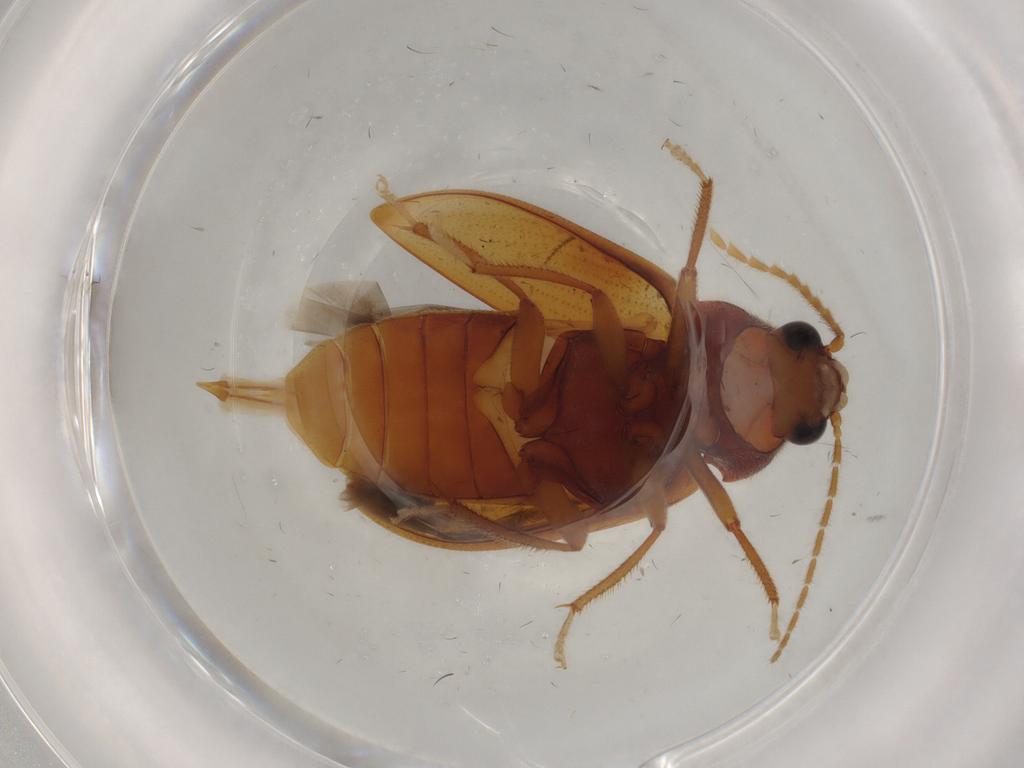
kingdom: Animalia
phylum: Arthropoda
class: Insecta
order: Coleoptera
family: Ptilodactylidae
